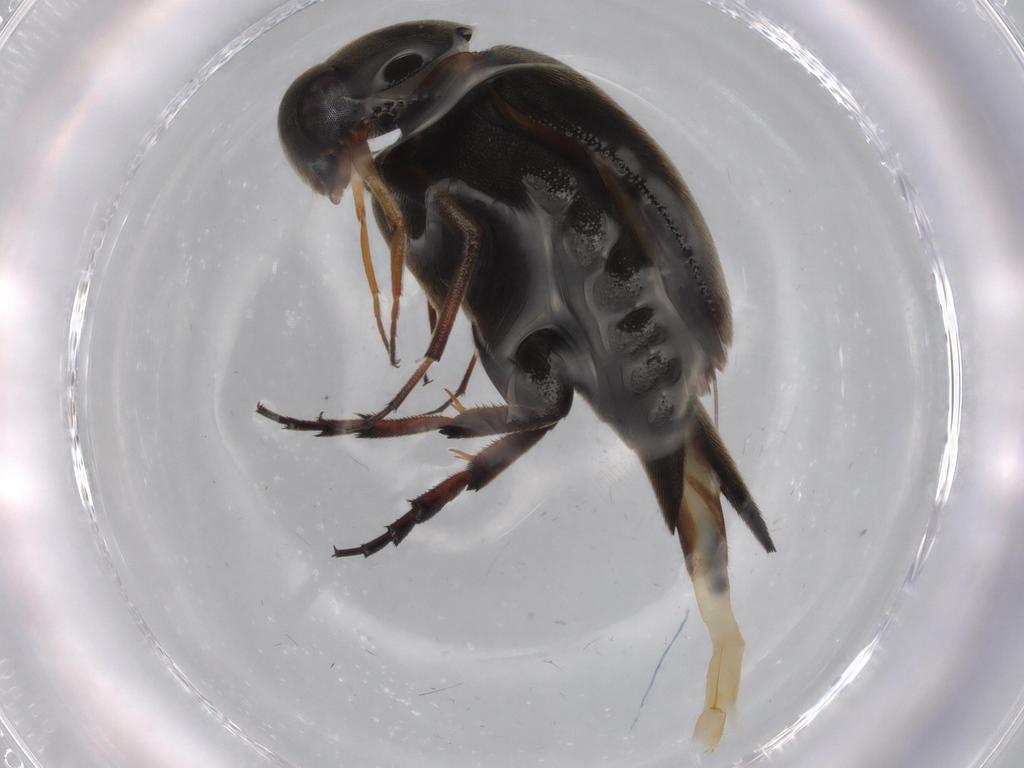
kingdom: Animalia
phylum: Arthropoda
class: Insecta
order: Coleoptera
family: Mordellidae
